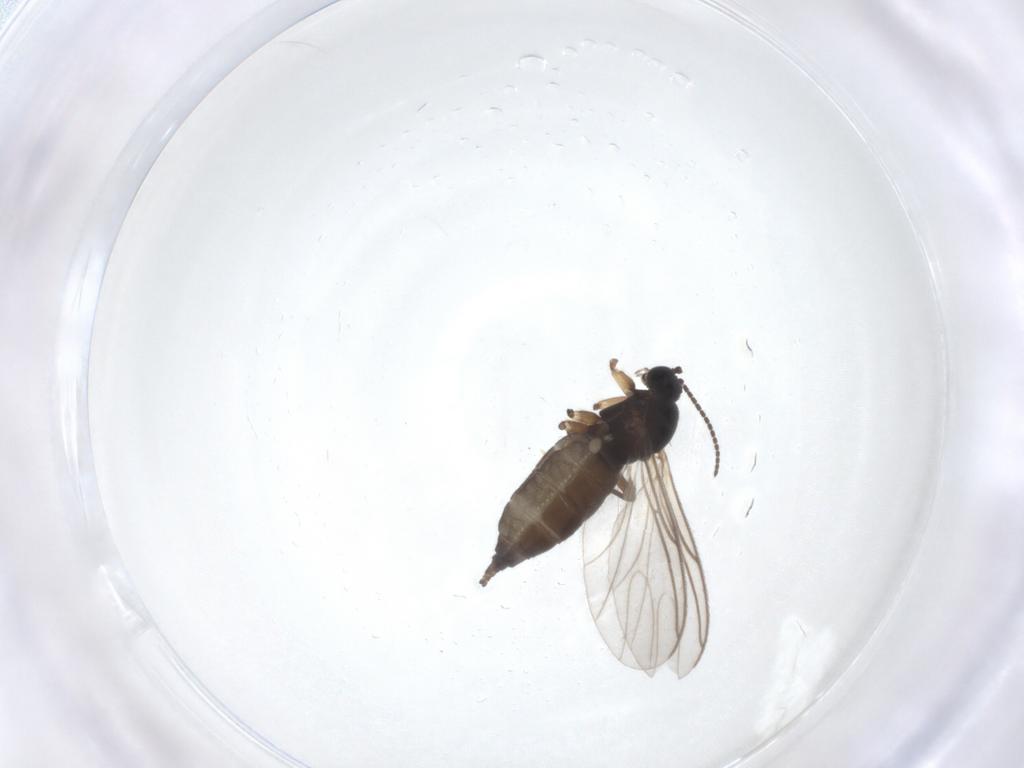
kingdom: Animalia
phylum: Arthropoda
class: Insecta
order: Diptera
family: Sciaridae
